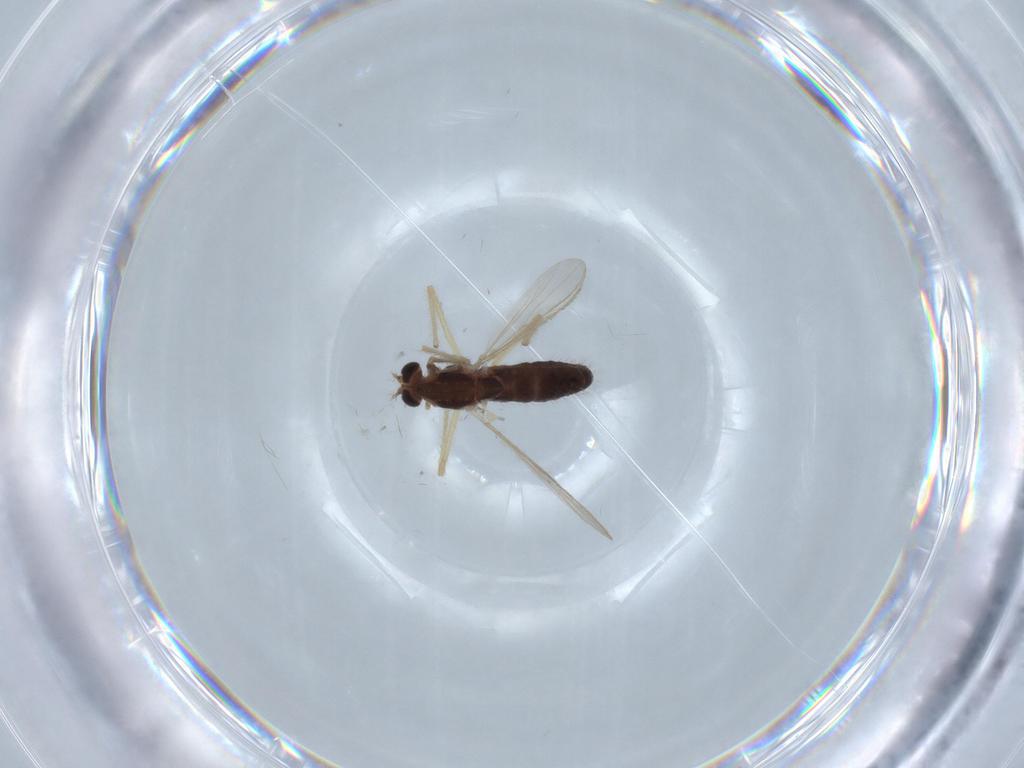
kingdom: Animalia
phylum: Arthropoda
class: Insecta
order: Diptera
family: Chironomidae
